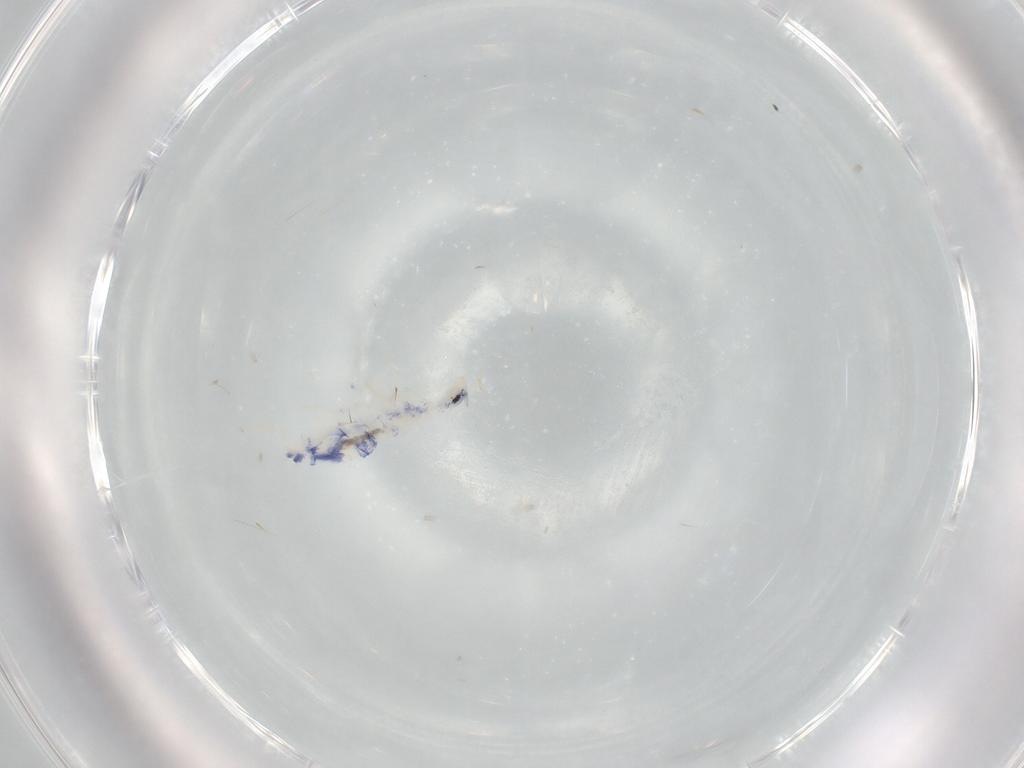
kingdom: Animalia
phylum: Arthropoda
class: Collembola
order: Entomobryomorpha
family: Entomobryidae
